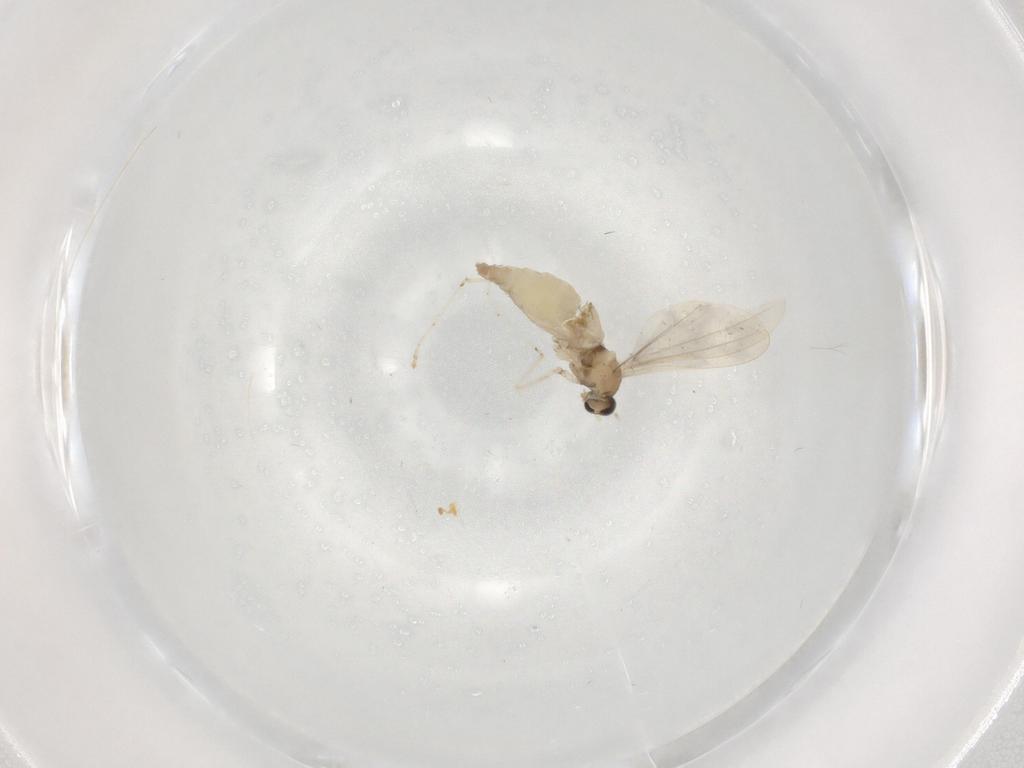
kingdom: Animalia
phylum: Arthropoda
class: Insecta
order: Diptera
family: Cecidomyiidae
